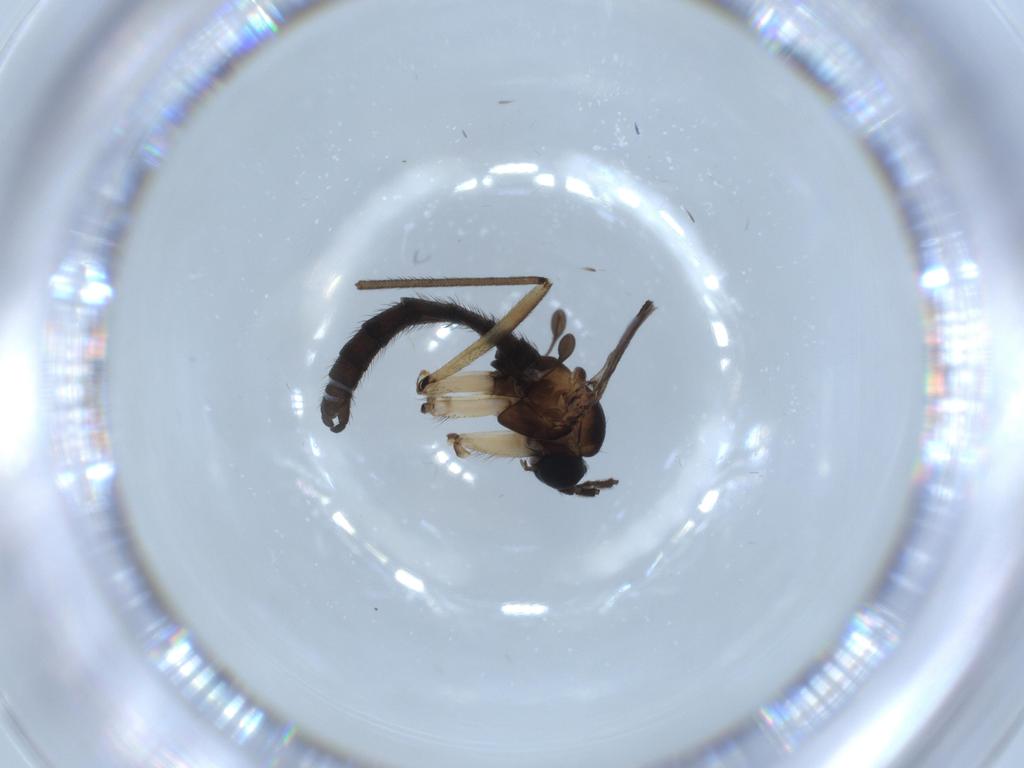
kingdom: Animalia
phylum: Arthropoda
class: Insecta
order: Diptera
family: Sciaridae
